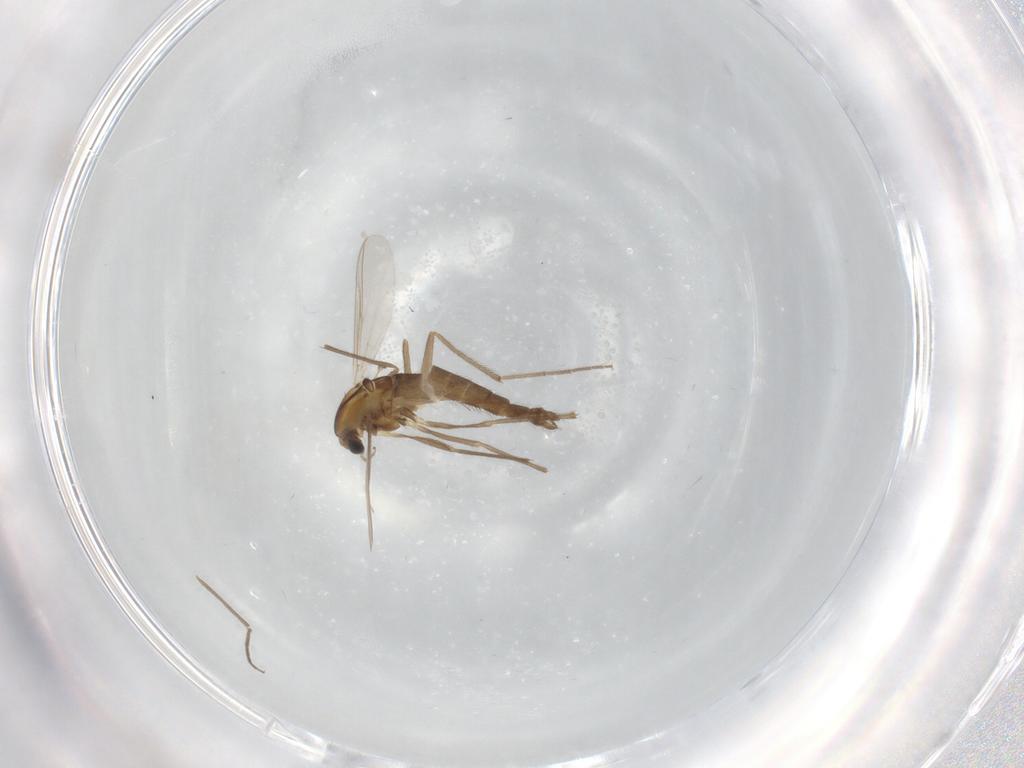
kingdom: Animalia
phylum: Arthropoda
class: Insecta
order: Diptera
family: Chironomidae
